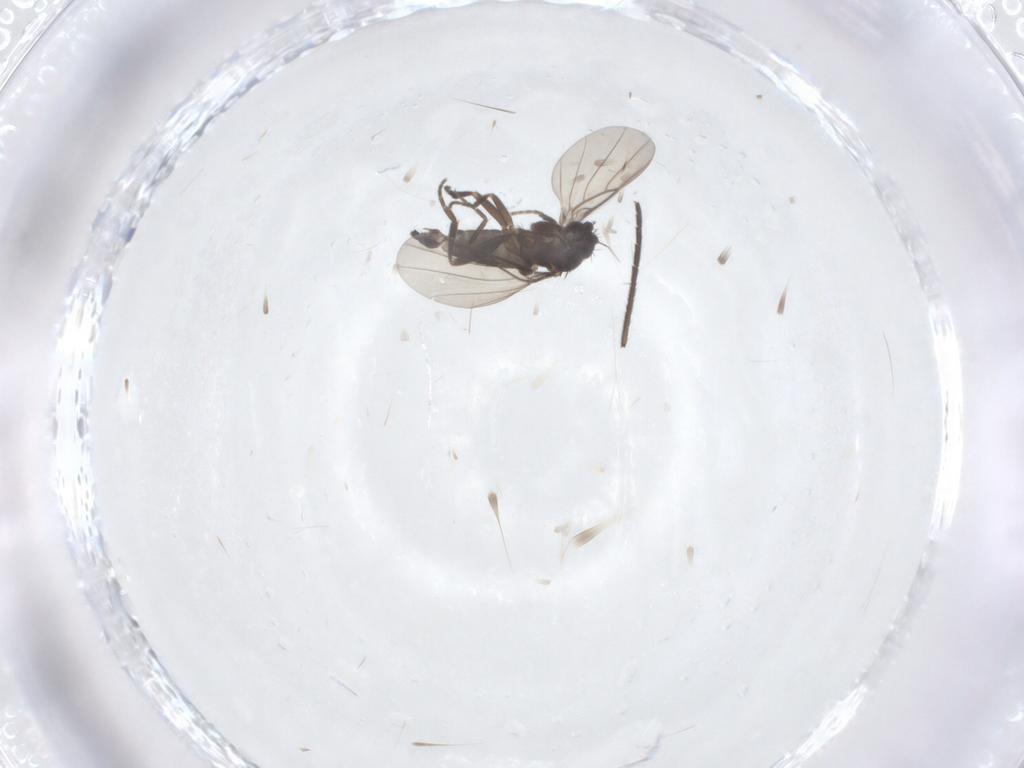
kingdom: Animalia
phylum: Arthropoda
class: Insecta
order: Diptera
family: Sciaridae
